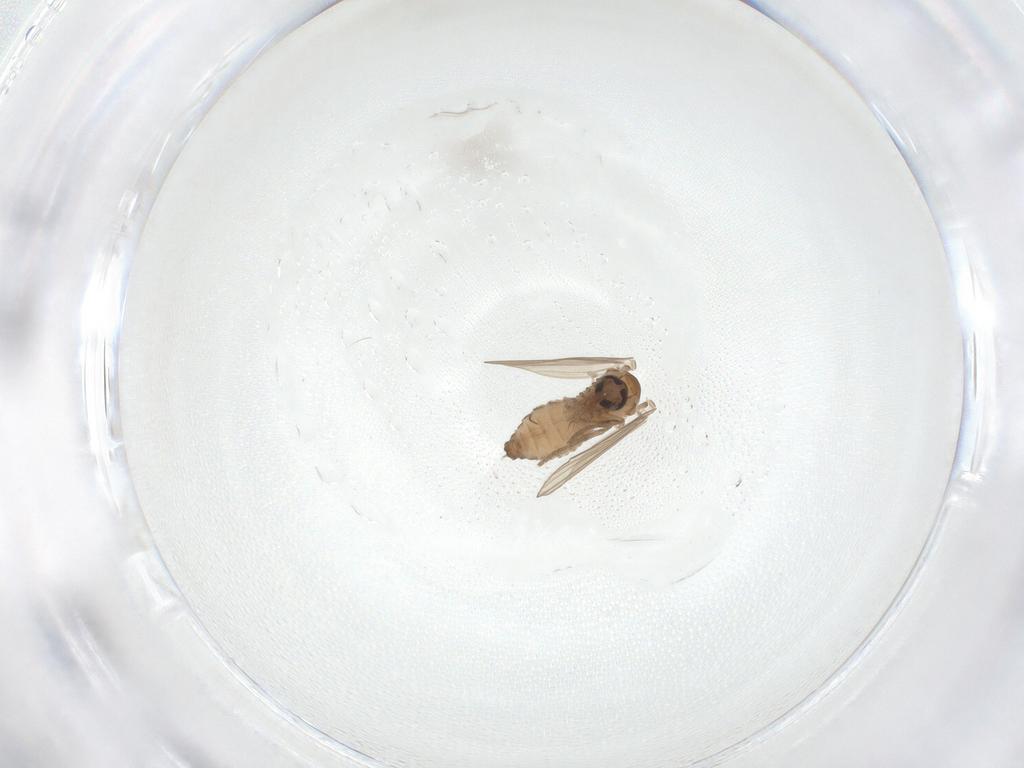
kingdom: Animalia
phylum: Arthropoda
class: Insecta
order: Diptera
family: Psychodidae
